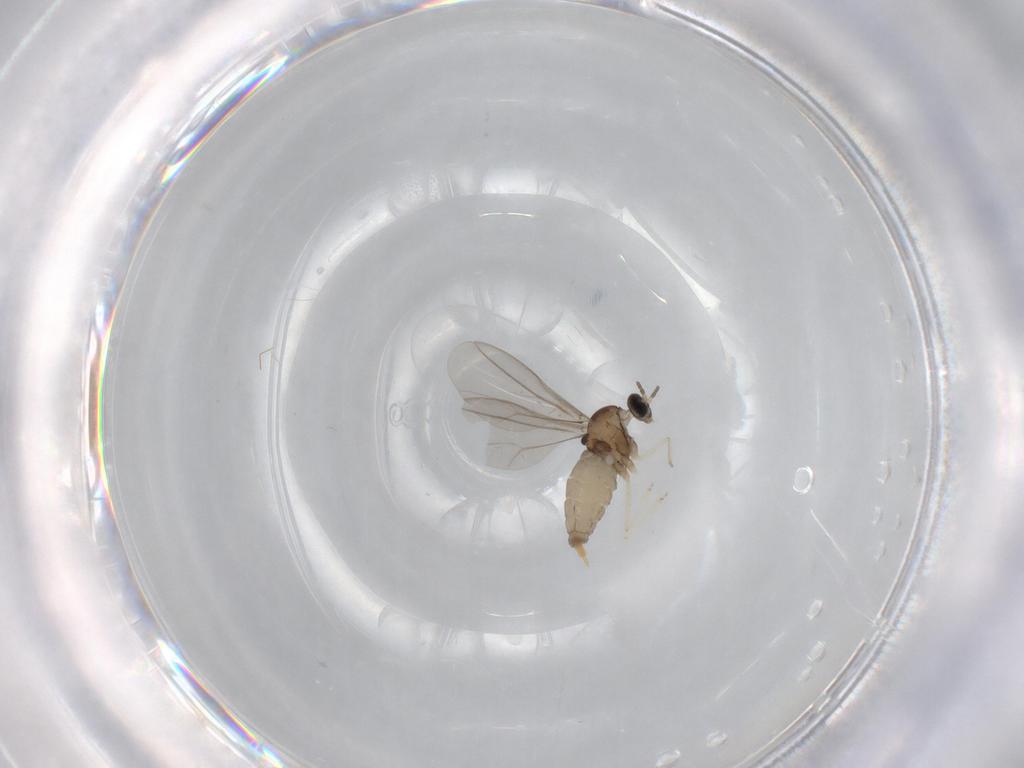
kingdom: Animalia
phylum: Arthropoda
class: Insecta
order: Diptera
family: Cecidomyiidae
